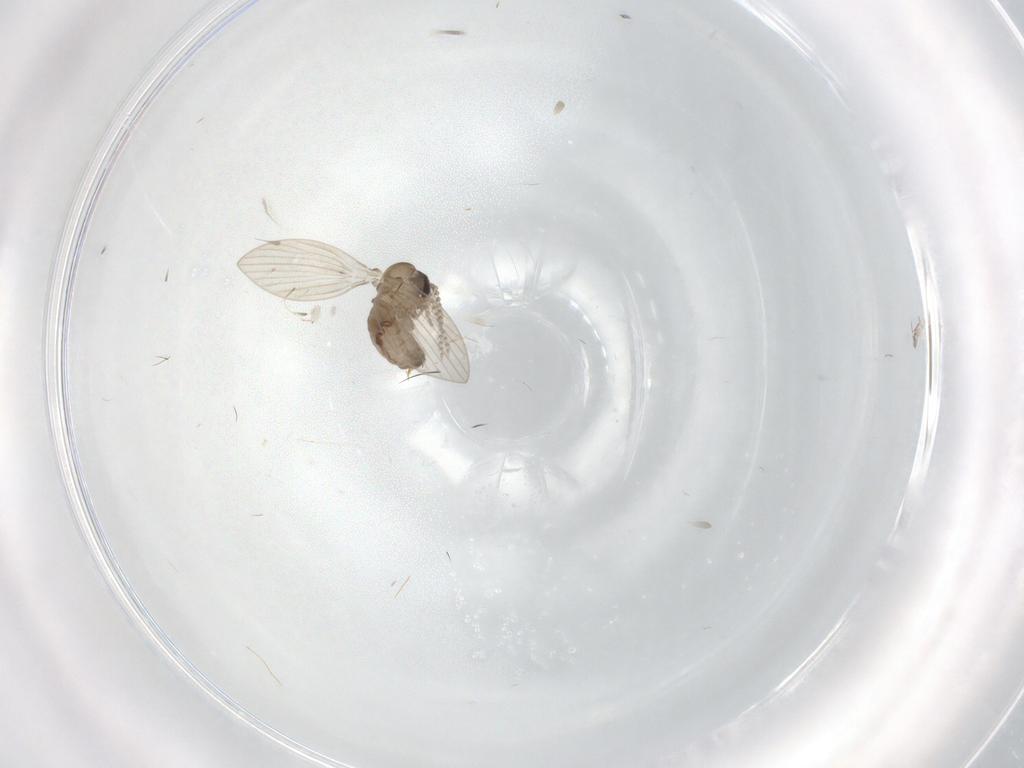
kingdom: Animalia
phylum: Arthropoda
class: Insecta
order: Diptera
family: Psychodidae
